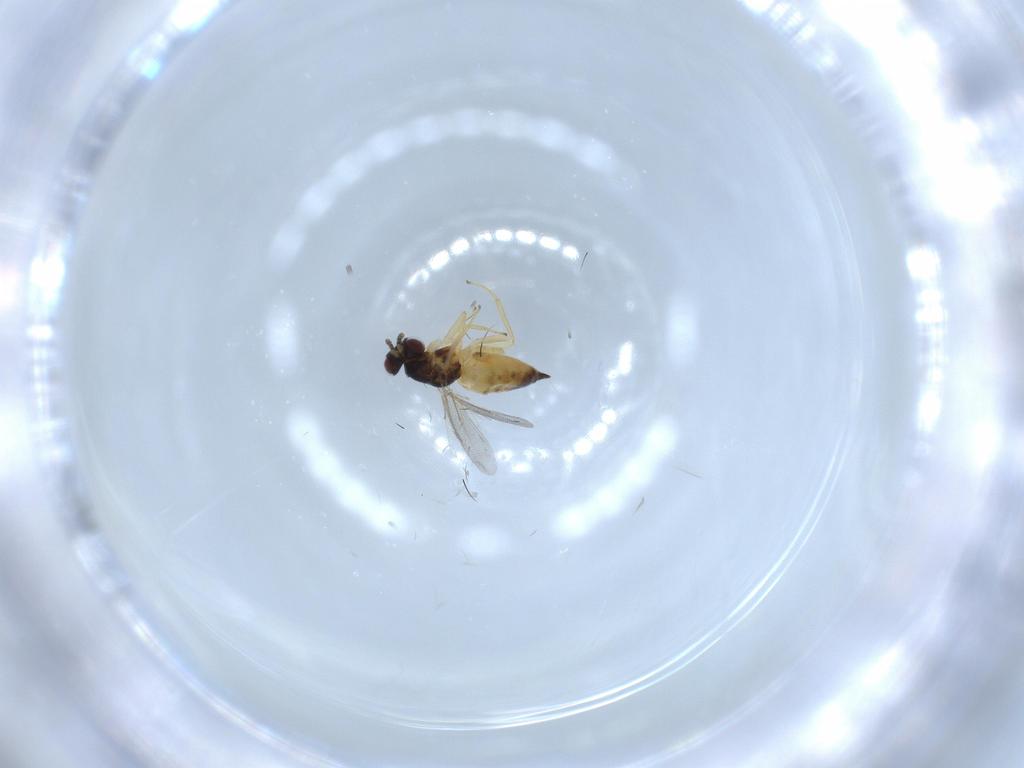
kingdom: Animalia
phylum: Arthropoda
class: Insecta
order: Hymenoptera
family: Eulophidae
